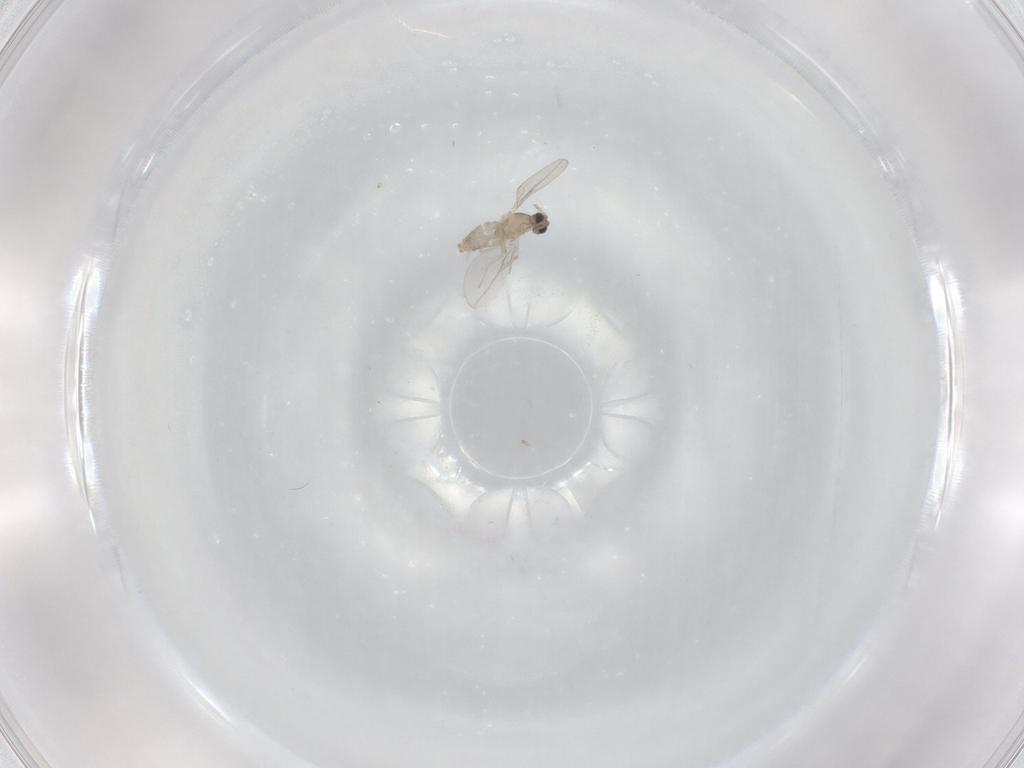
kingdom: Animalia
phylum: Arthropoda
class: Insecta
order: Diptera
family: Cecidomyiidae
